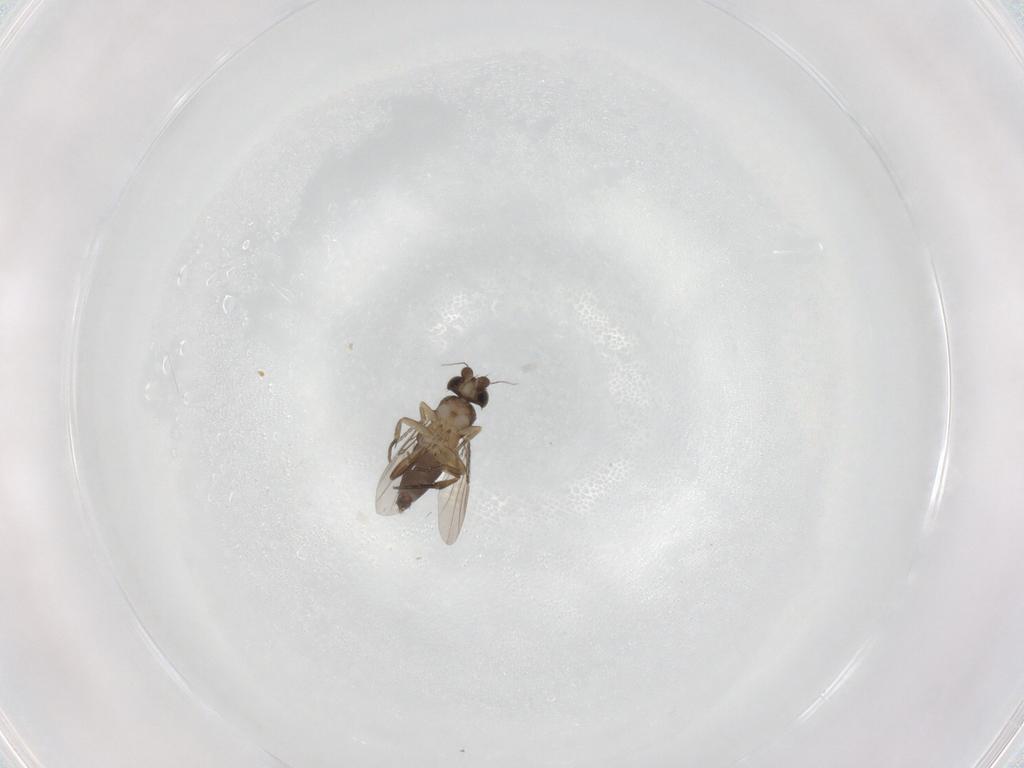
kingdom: Animalia
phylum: Arthropoda
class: Insecta
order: Diptera
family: Phoridae
